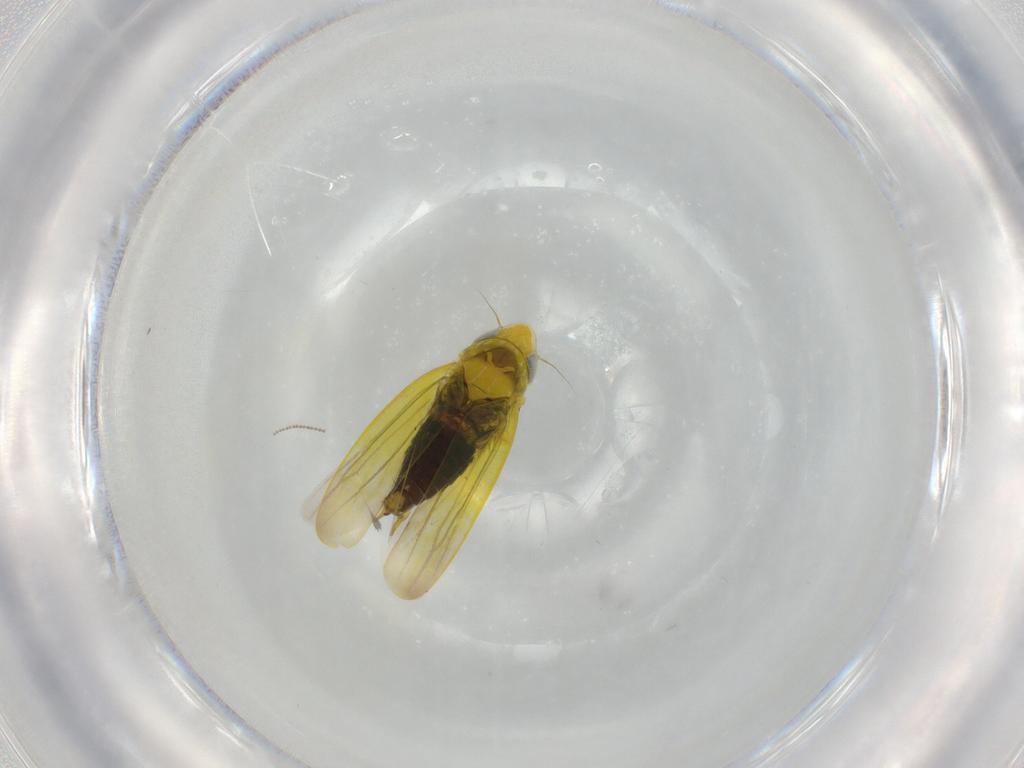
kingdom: Animalia
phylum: Arthropoda
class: Insecta
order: Hemiptera
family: Cicadellidae
